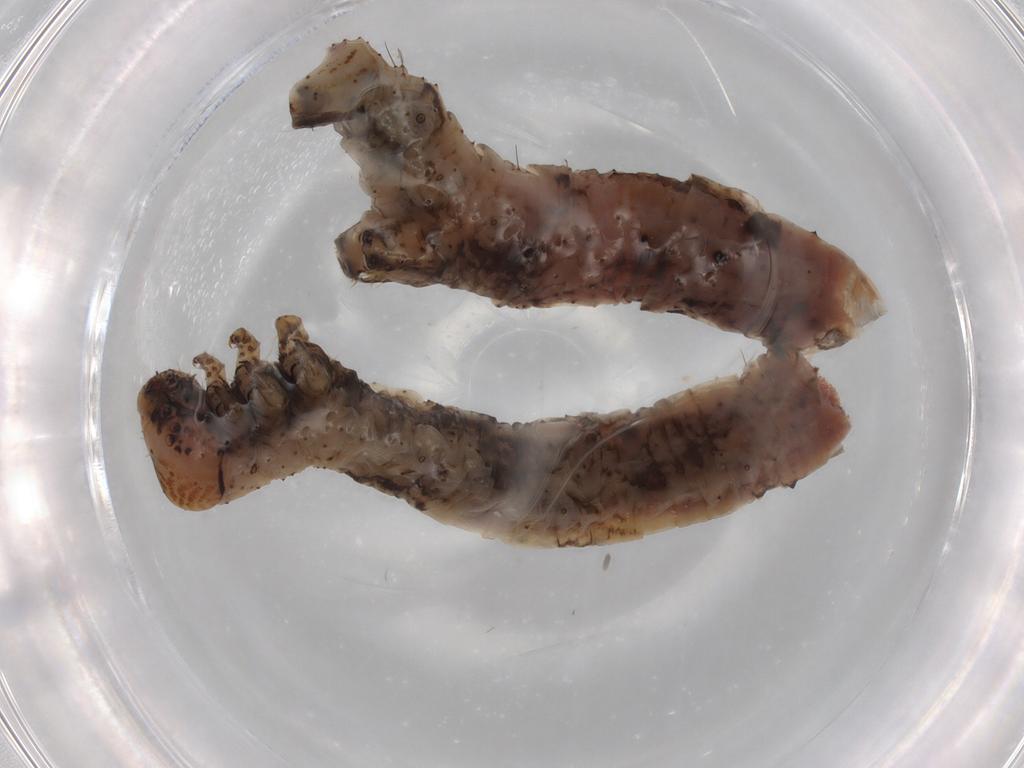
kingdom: Animalia
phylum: Arthropoda
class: Insecta
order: Lepidoptera
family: Geometridae
